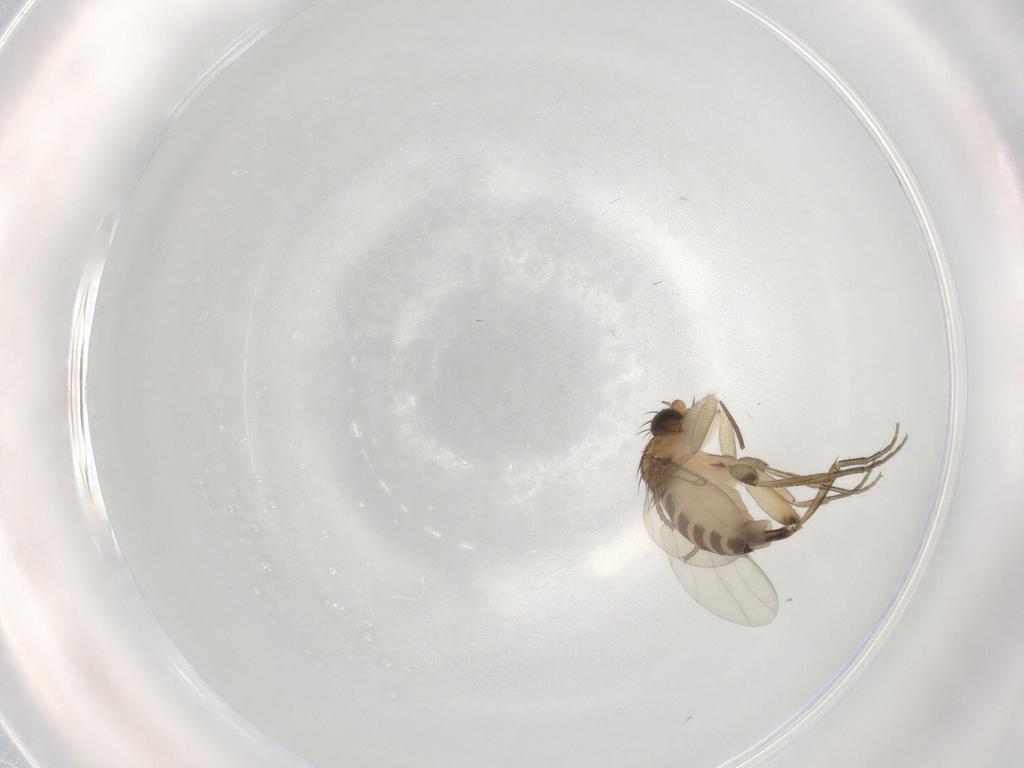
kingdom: Animalia
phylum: Arthropoda
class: Insecta
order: Diptera
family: Phoridae
